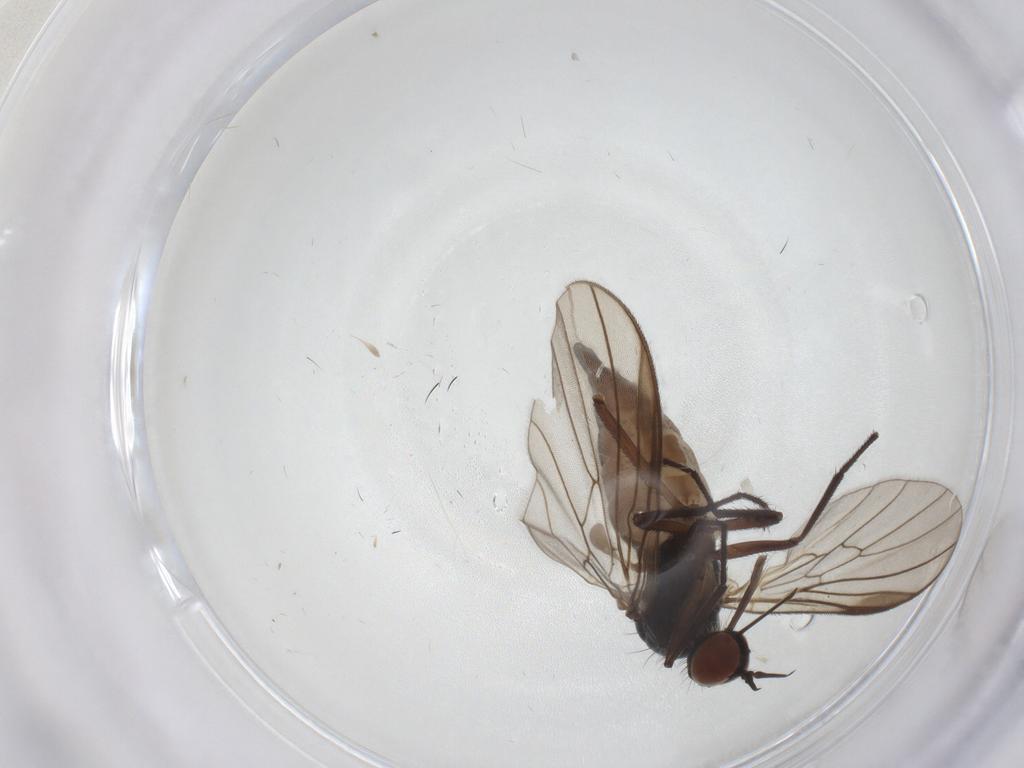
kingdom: Animalia
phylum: Arthropoda
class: Insecta
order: Diptera
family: Empididae
